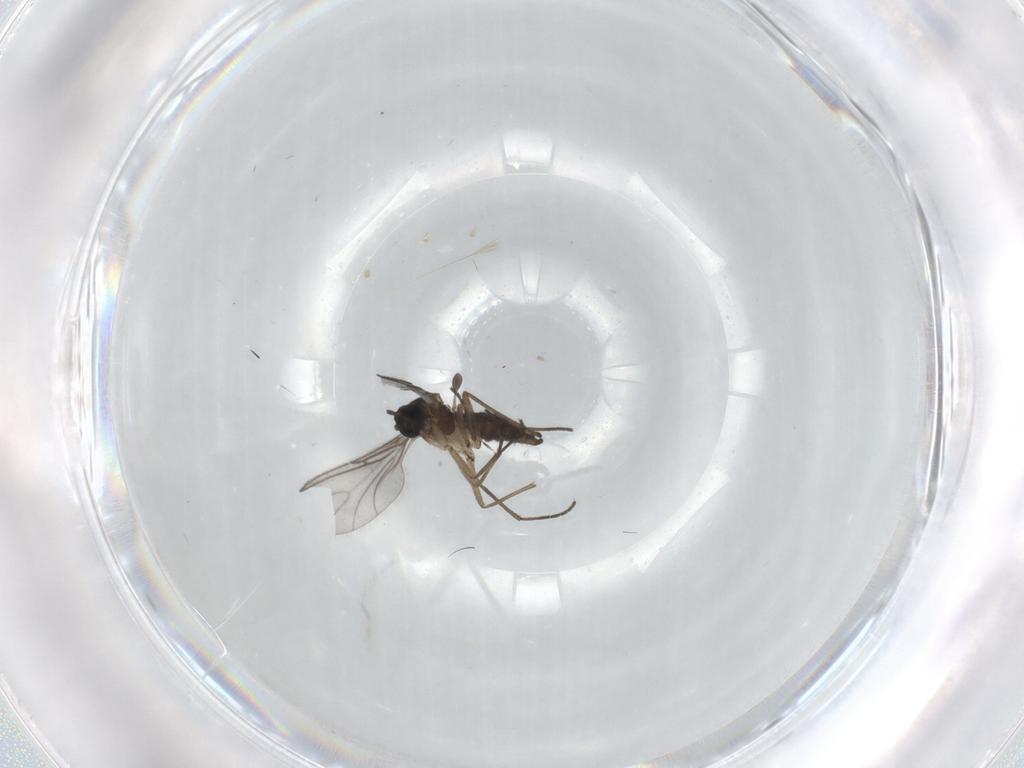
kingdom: Animalia
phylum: Arthropoda
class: Insecta
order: Diptera
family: Sciaridae
